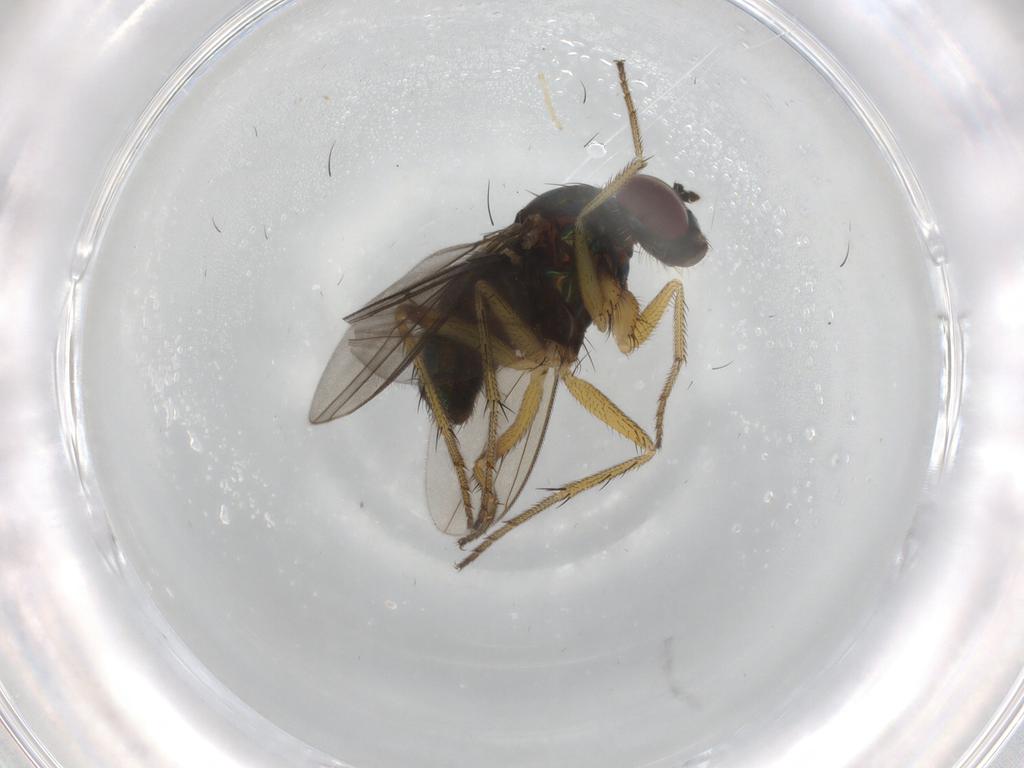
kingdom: Animalia
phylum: Arthropoda
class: Insecta
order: Diptera
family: Dolichopodidae
